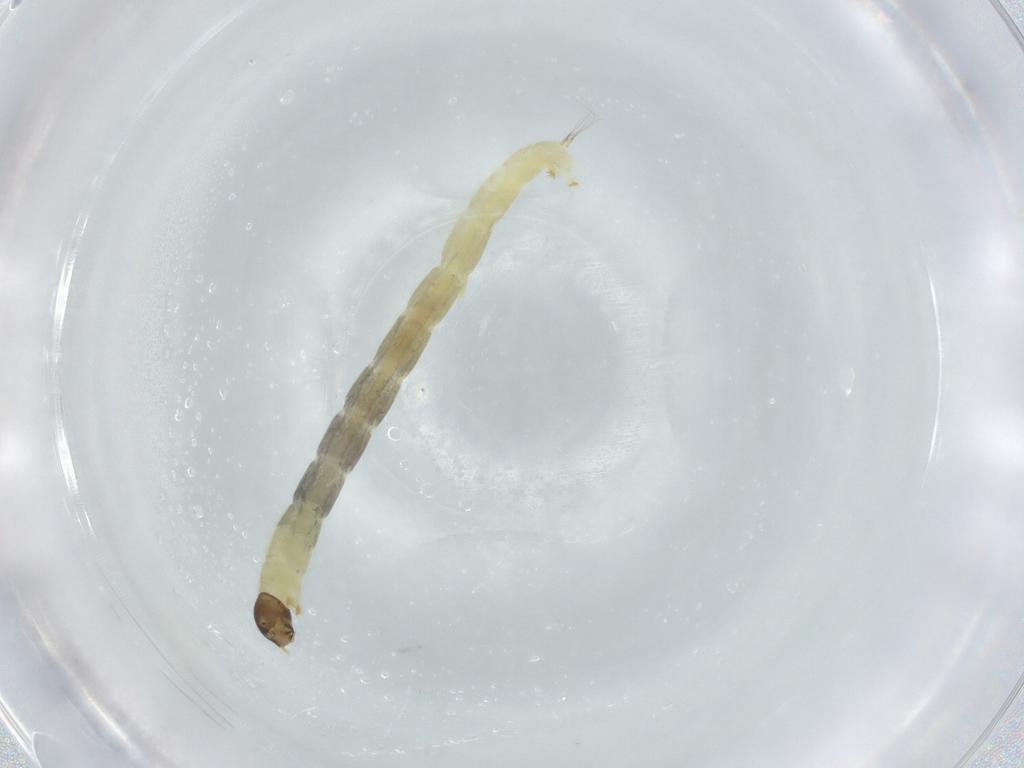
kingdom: Animalia
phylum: Arthropoda
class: Insecta
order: Diptera
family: Chironomidae
